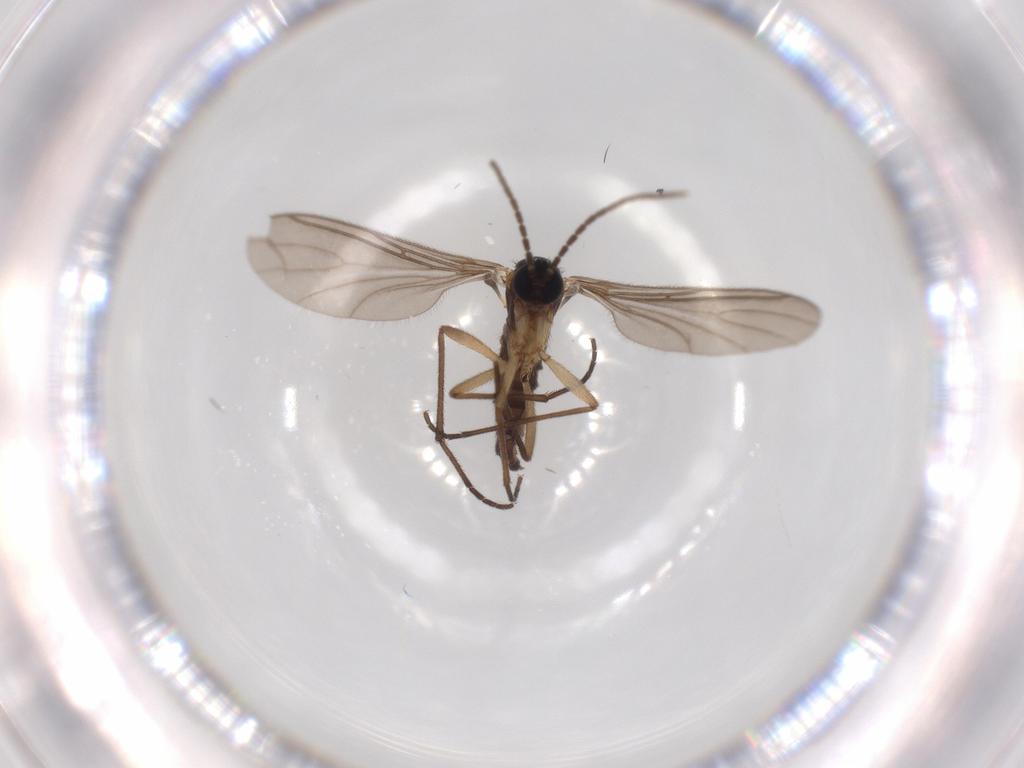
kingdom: Animalia
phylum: Arthropoda
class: Insecta
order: Diptera
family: Sciaridae
